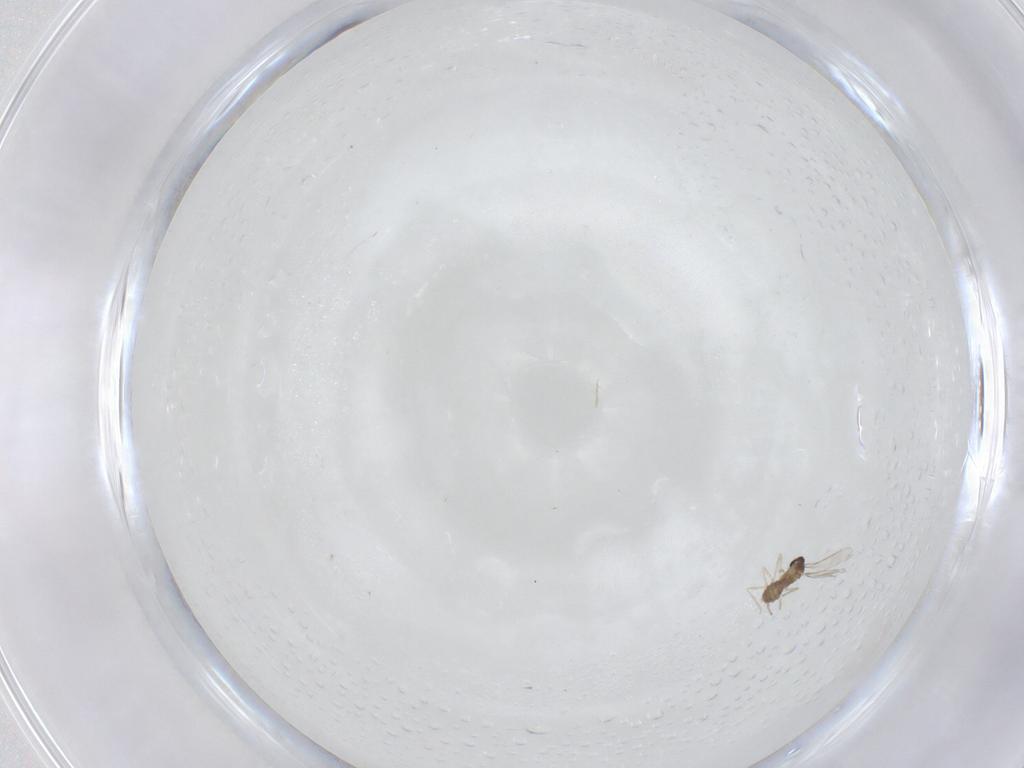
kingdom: Animalia
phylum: Arthropoda
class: Insecta
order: Diptera
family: Cecidomyiidae
